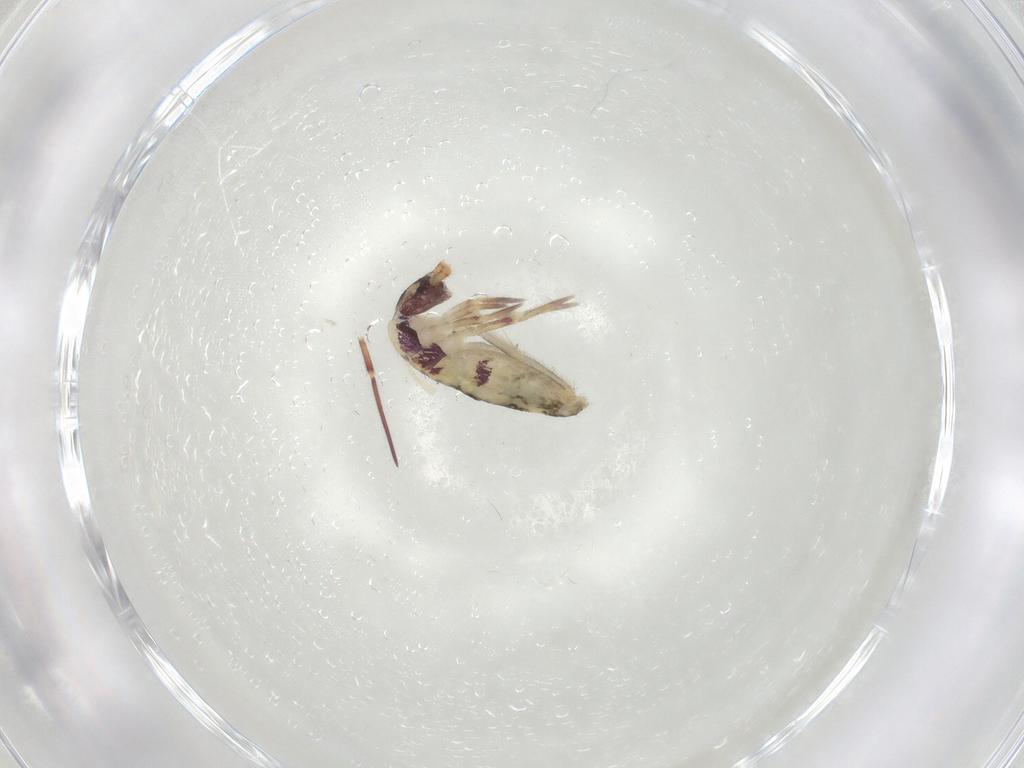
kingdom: Animalia
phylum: Arthropoda
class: Collembola
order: Entomobryomorpha
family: Entomobryidae
